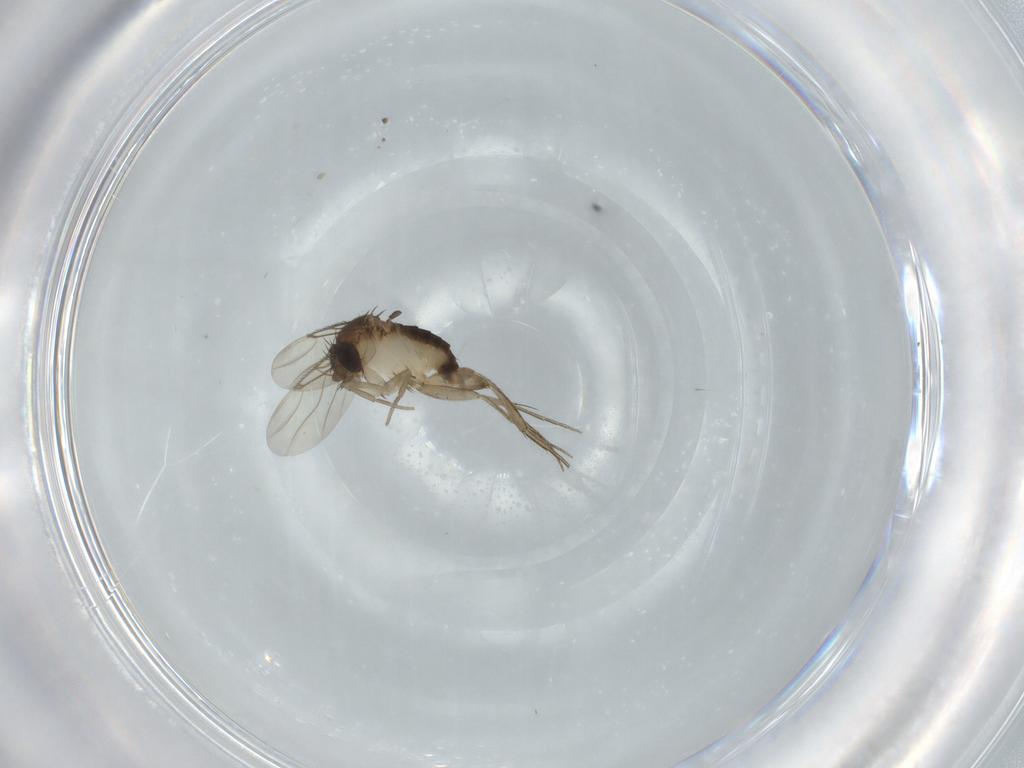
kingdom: Animalia
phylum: Arthropoda
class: Insecta
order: Diptera
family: Phoridae
